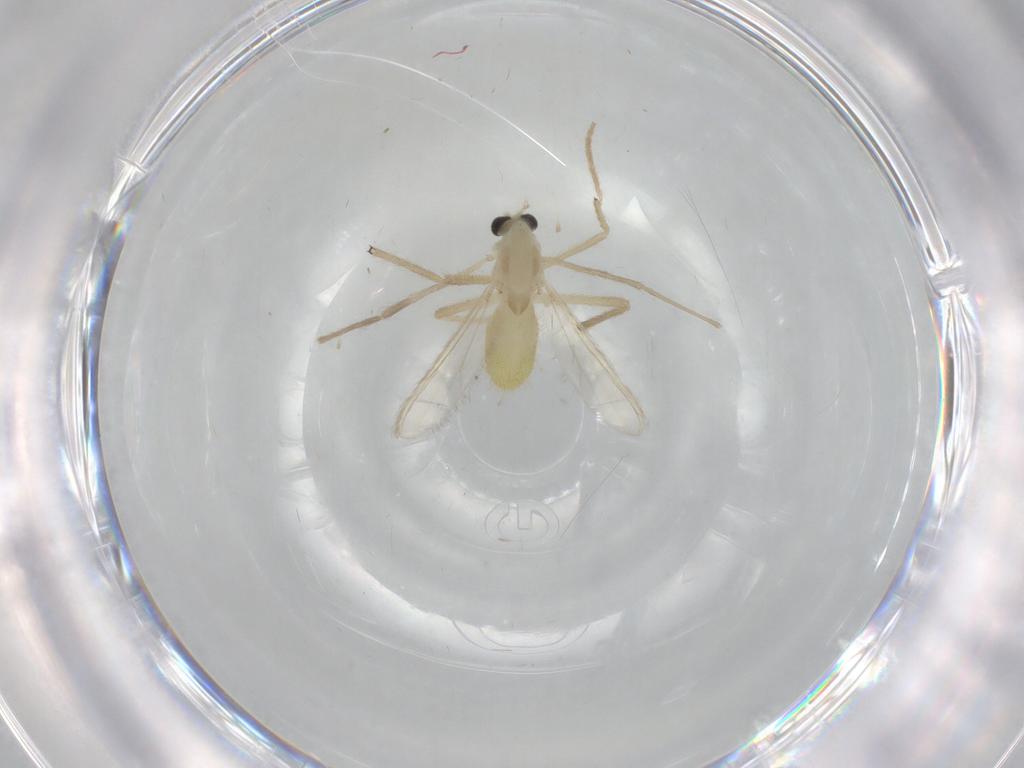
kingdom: Animalia
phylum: Arthropoda
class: Insecta
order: Diptera
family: Chironomidae
